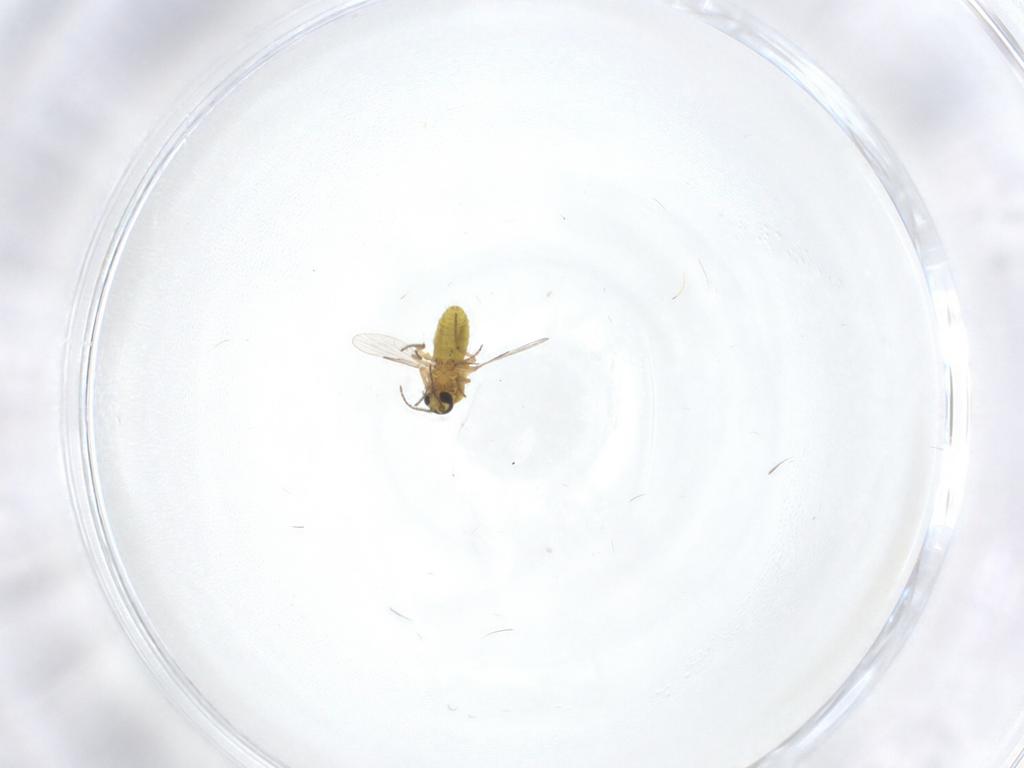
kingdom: Animalia
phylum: Arthropoda
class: Insecta
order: Diptera
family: Ceratopogonidae
